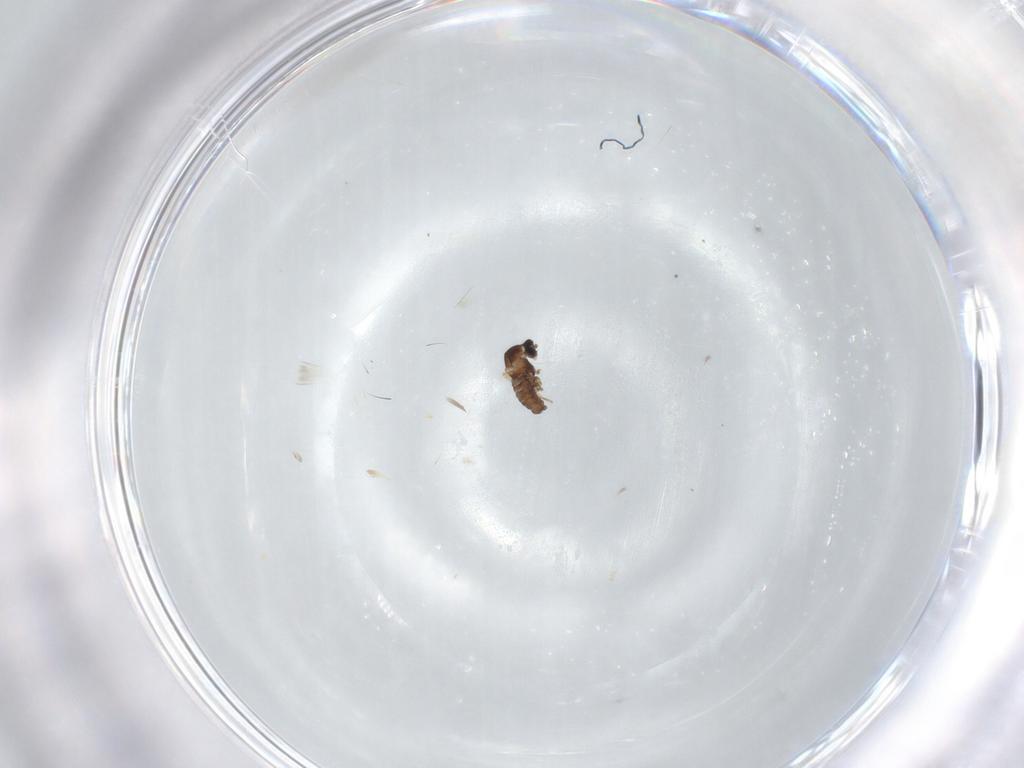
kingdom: Animalia
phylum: Arthropoda
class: Insecta
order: Diptera
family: Cecidomyiidae
